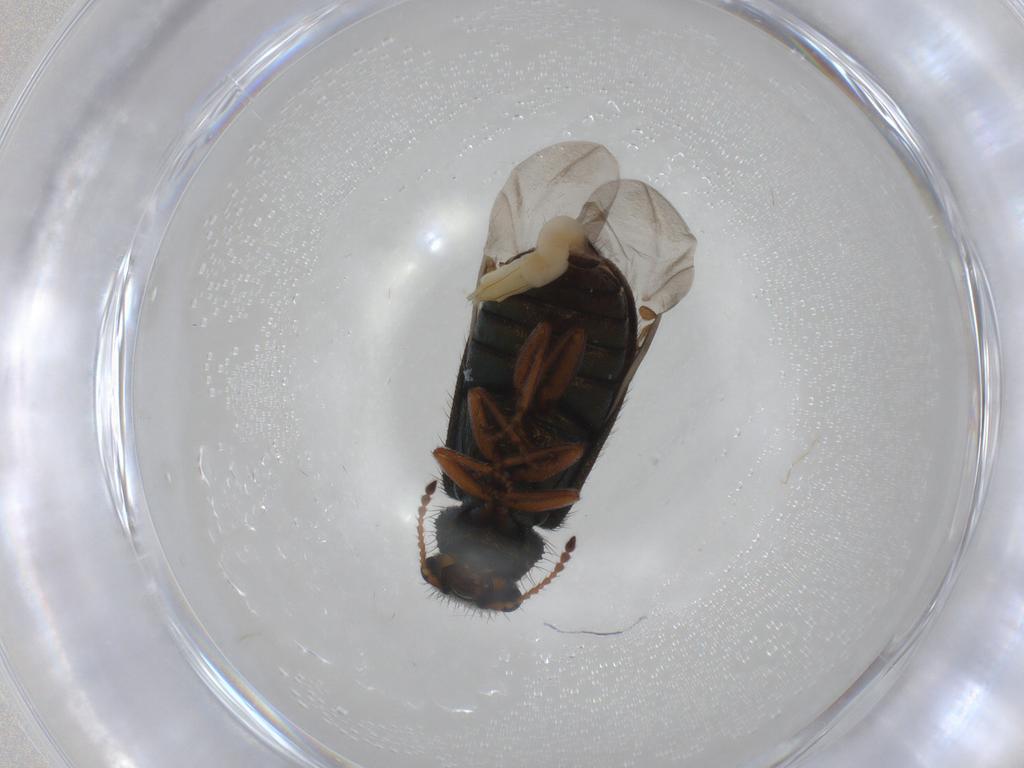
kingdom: Animalia
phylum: Arthropoda
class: Insecta
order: Coleoptera
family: Melyridae
